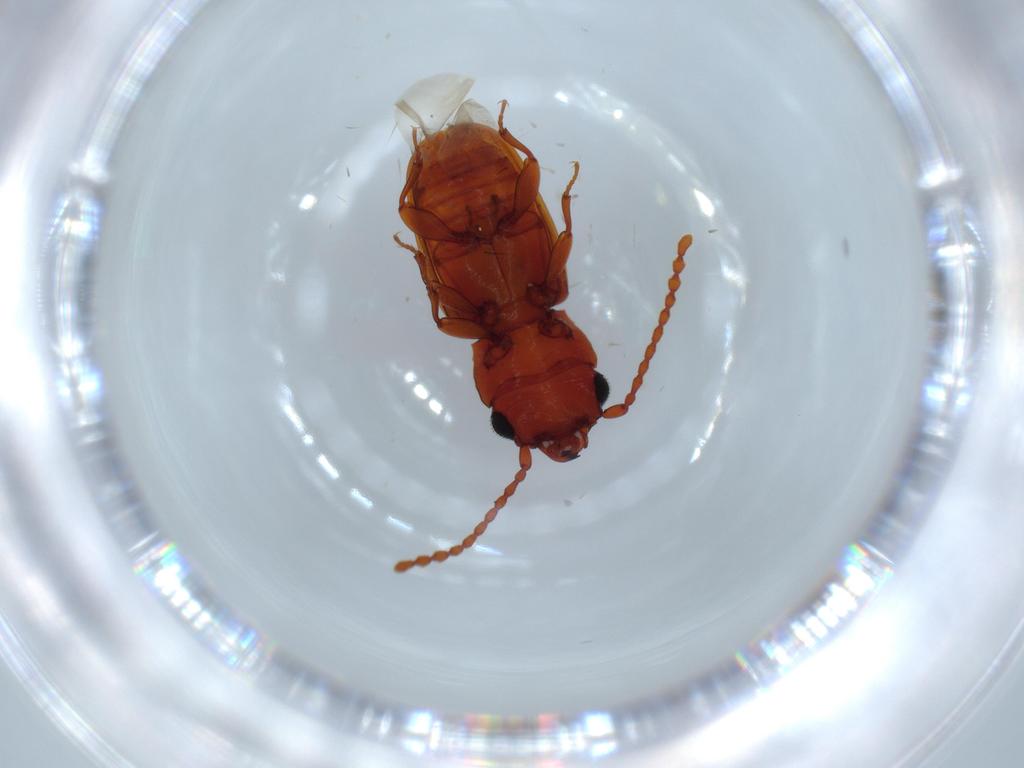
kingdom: Animalia
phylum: Arthropoda
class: Insecta
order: Coleoptera
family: Laemophloeidae
